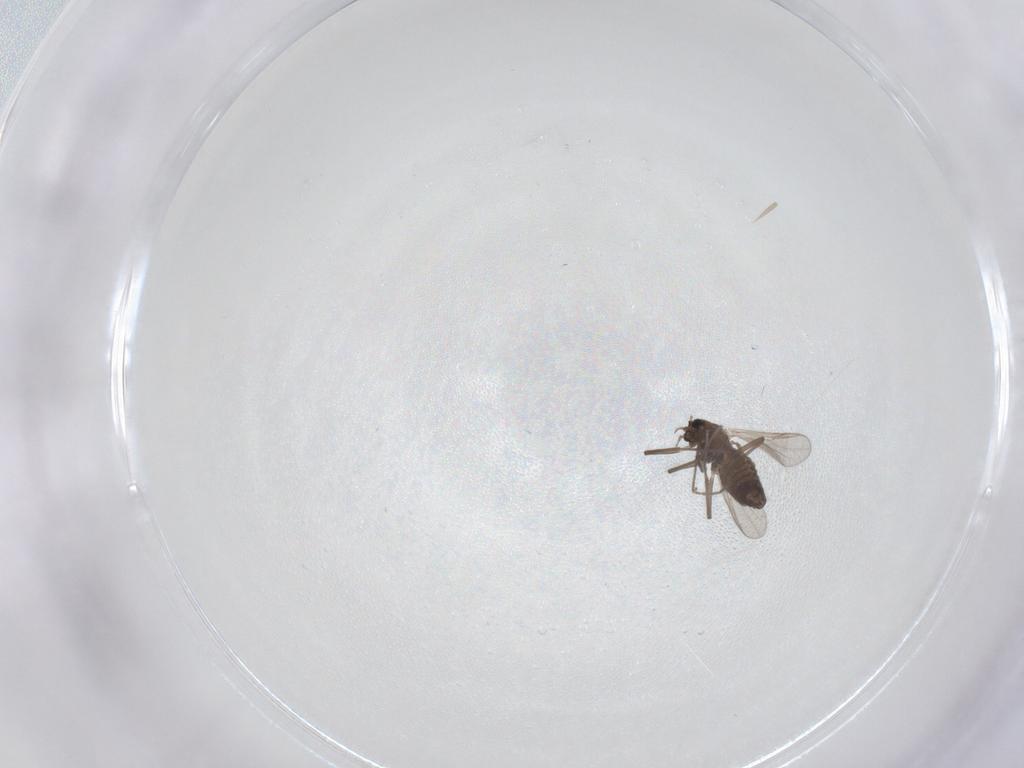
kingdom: Animalia
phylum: Arthropoda
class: Insecta
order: Diptera
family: Chironomidae
